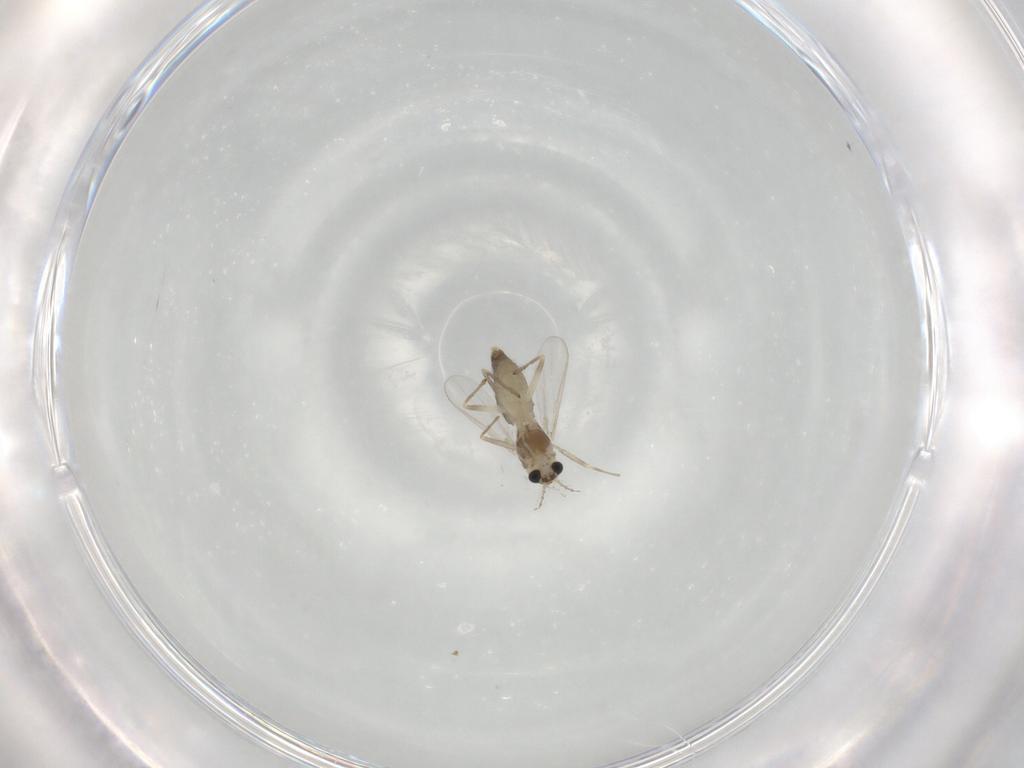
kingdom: Animalia
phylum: Arthropoda
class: Insecta
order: Diptera
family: Chironomidae
